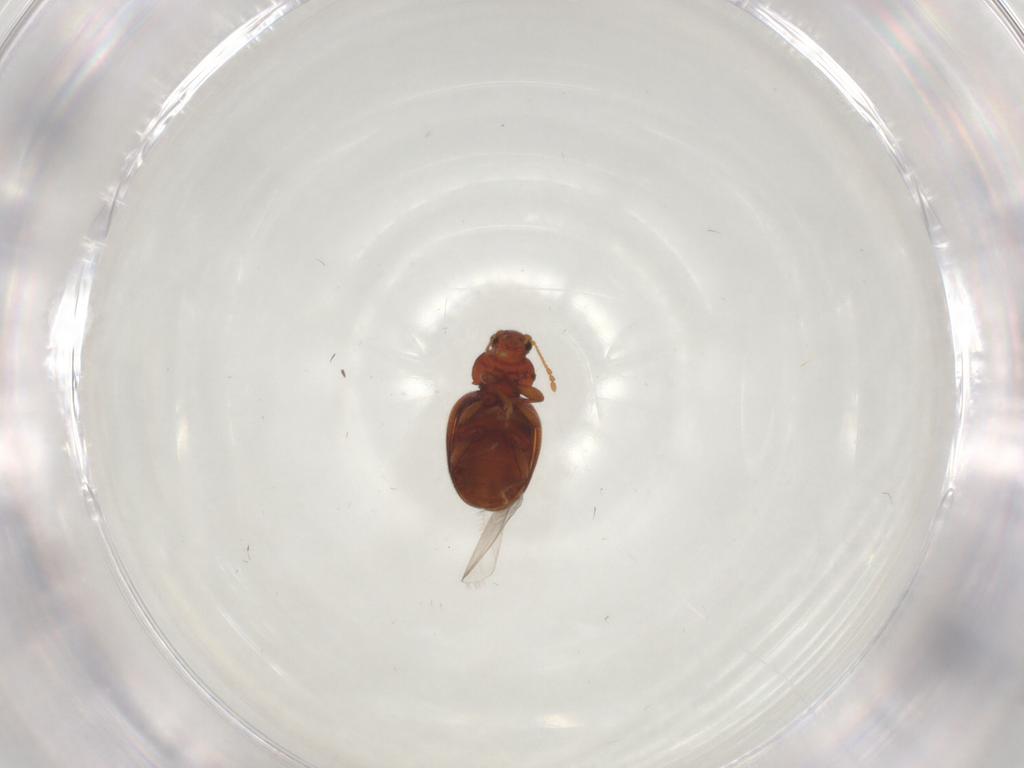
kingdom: Animalia
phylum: Arthropoda
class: Insecta
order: Coleoptera
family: Latridiidae
